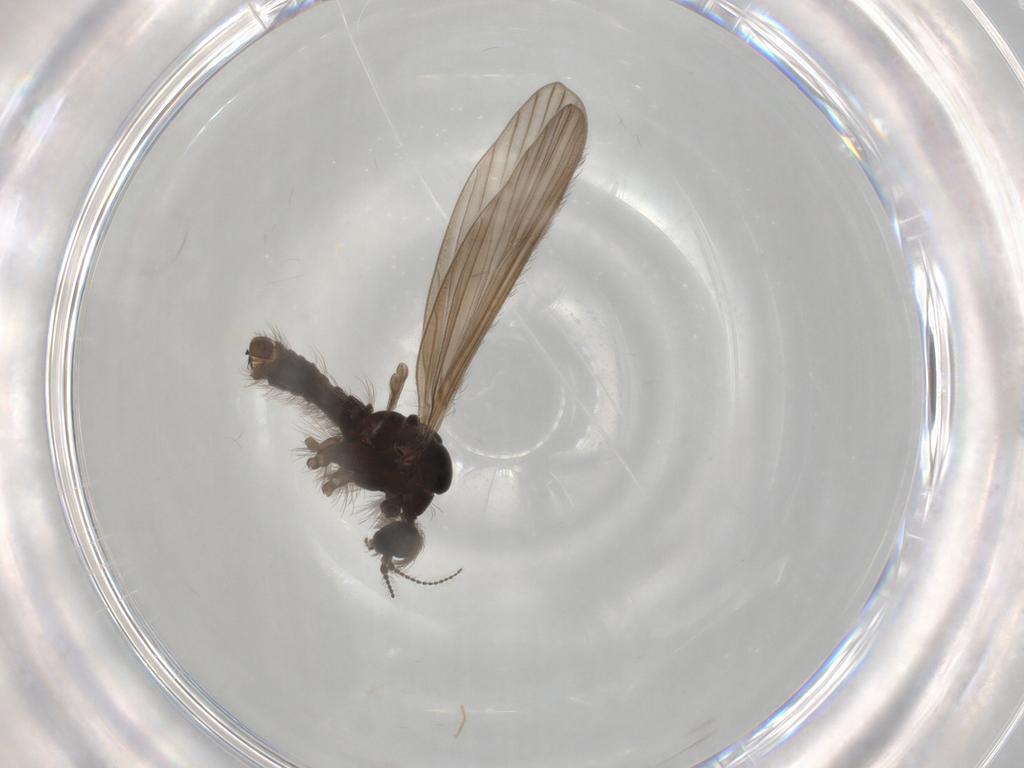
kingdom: Animalia
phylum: Arthropoda
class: Insecta
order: Diptera
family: Limoniidae
